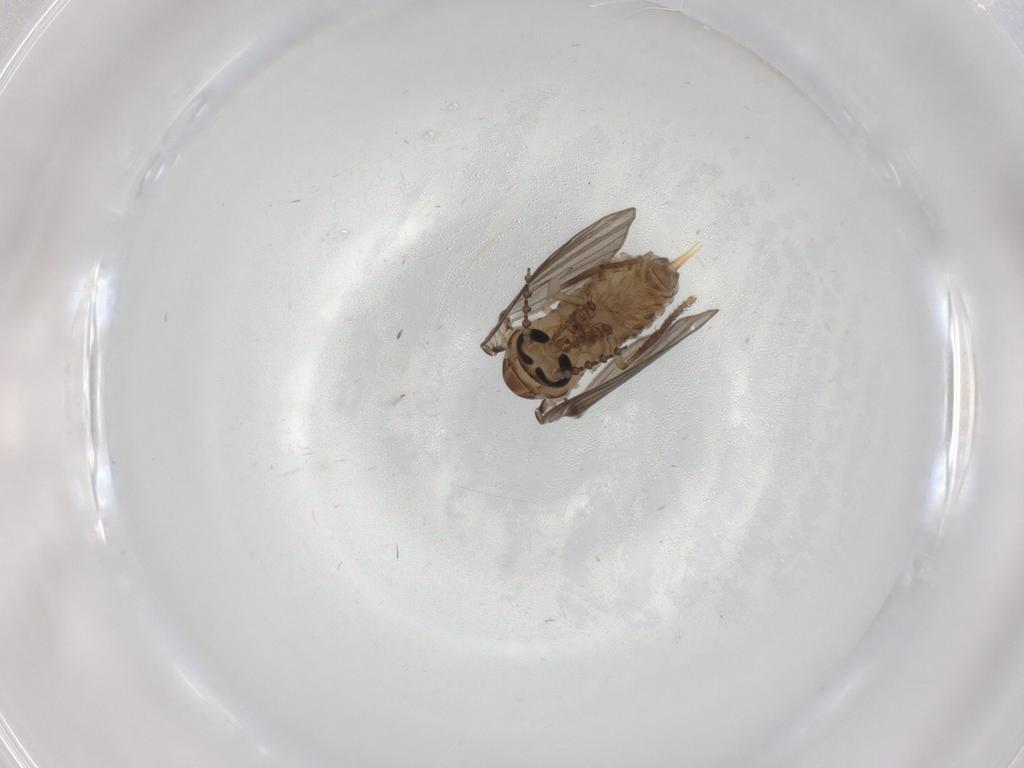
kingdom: Animalia
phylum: Arthropoda
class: Insecta
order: Diptera
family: Psychodidae
